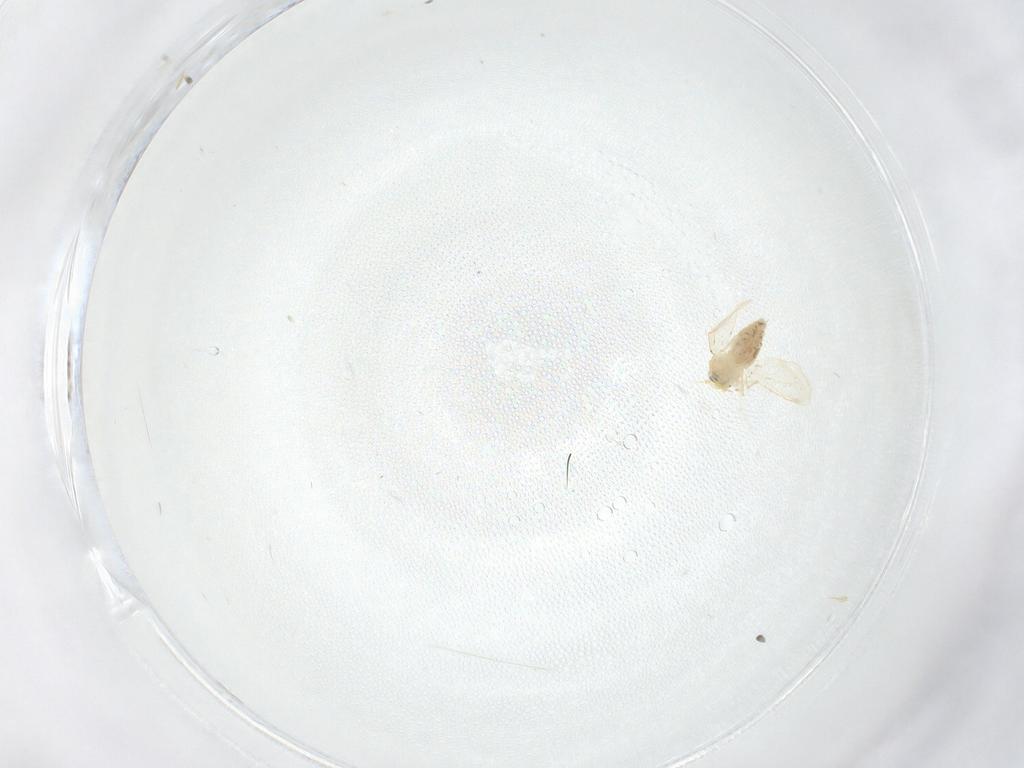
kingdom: Animalia
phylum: Arthropoda
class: Insecta
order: Hemiptera
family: Aleyrodidae
